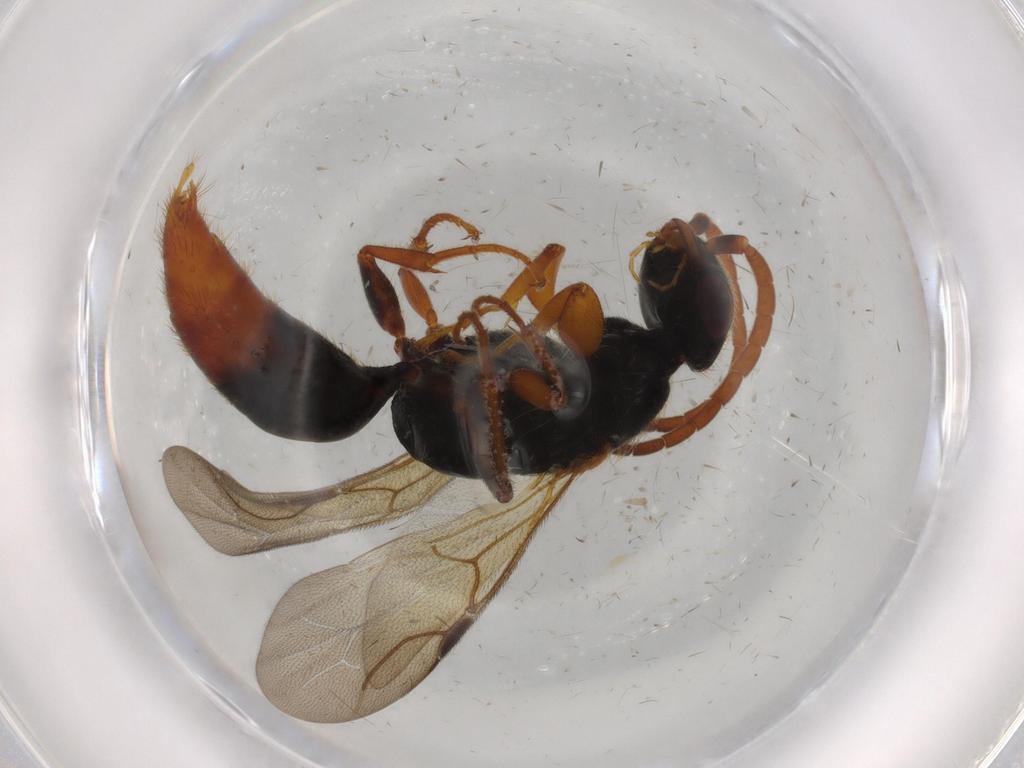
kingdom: Animalia
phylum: Arthropoda
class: Insecta
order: Hymenoptera
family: Bethylidae
